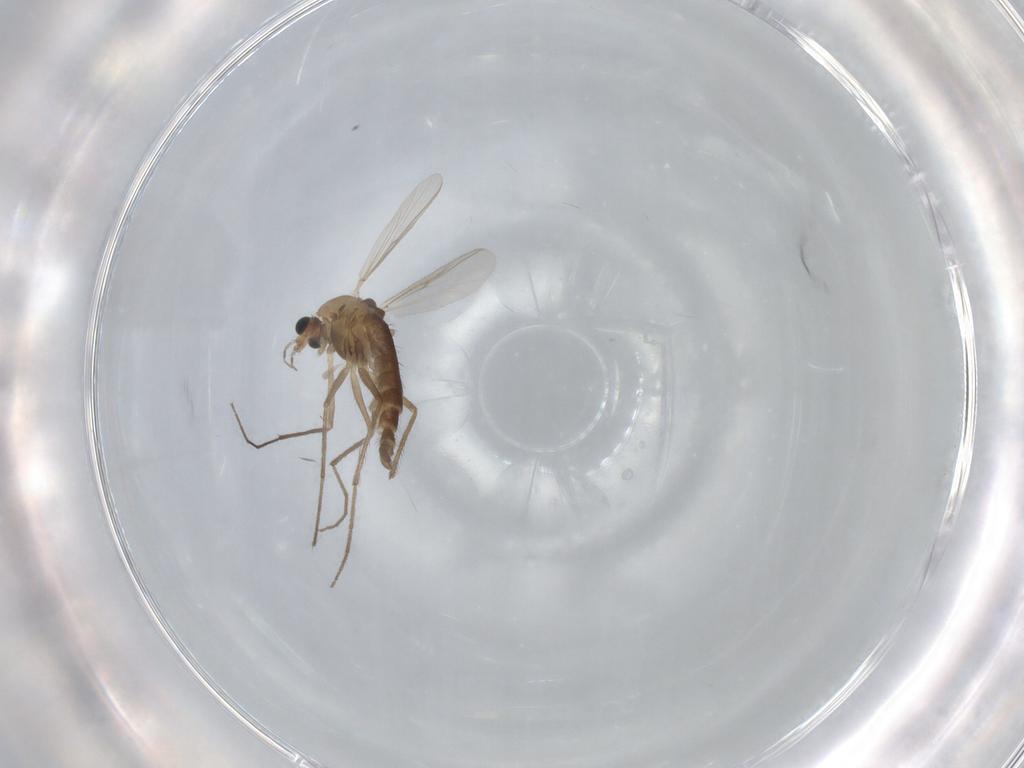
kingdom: Animalia
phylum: Arthropoda
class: Insecta
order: Diptera
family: Chironomidae
